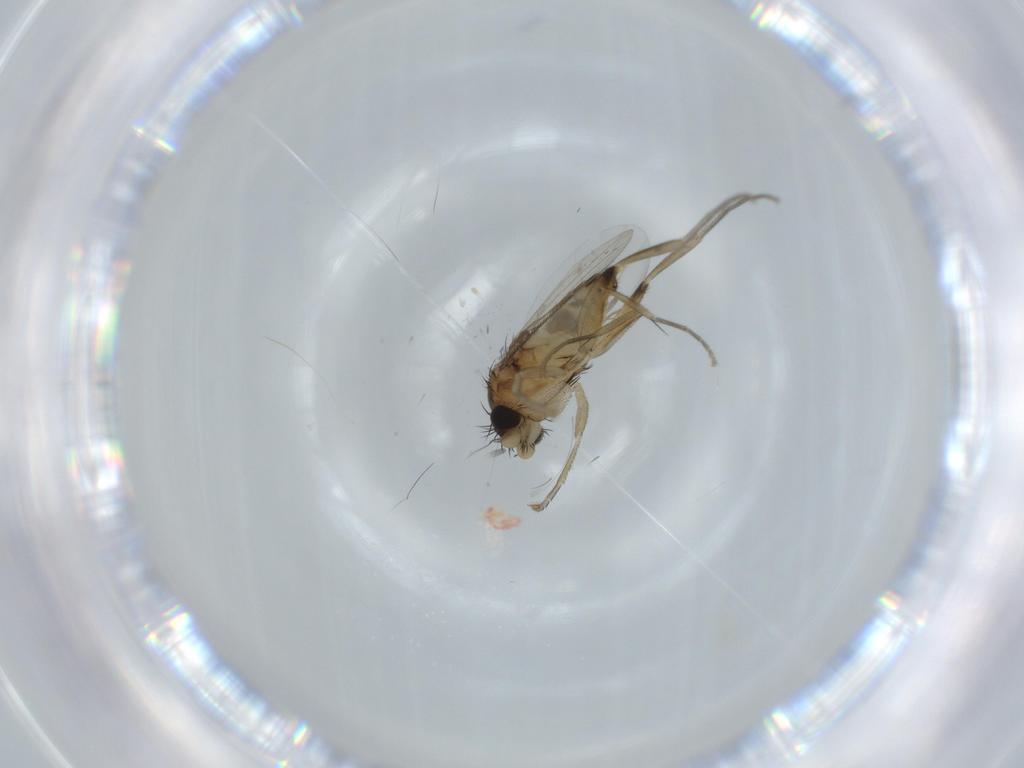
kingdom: Animalia
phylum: Arthropoda
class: Insecta
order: Diptera
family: Phoridae
